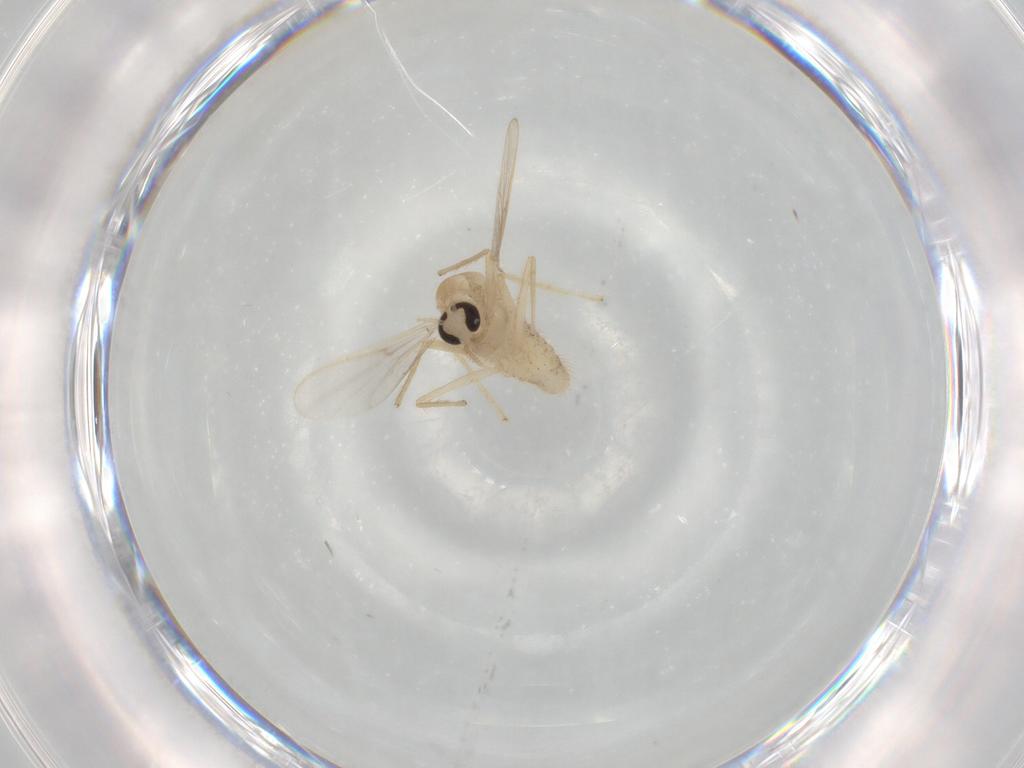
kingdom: Animalia
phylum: Arthropoda
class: Insecta
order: Diptera
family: Chironomidae
